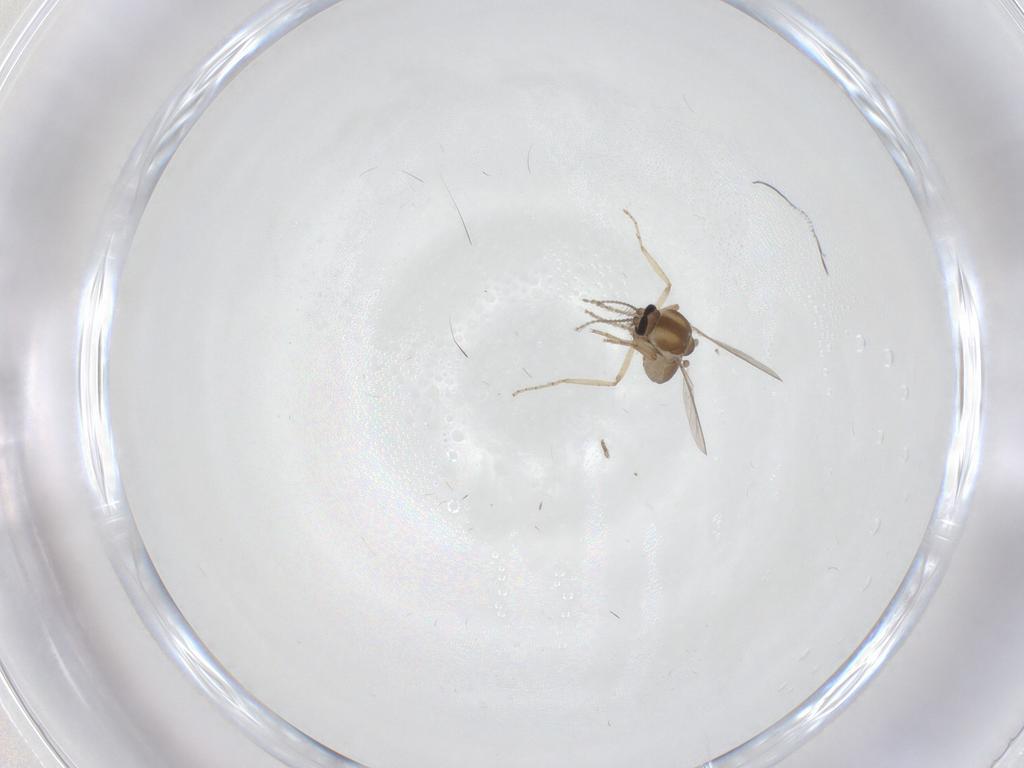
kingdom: Animalia
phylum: Arthropoda
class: Insecta
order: Diptera
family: Ceratopogonidae
